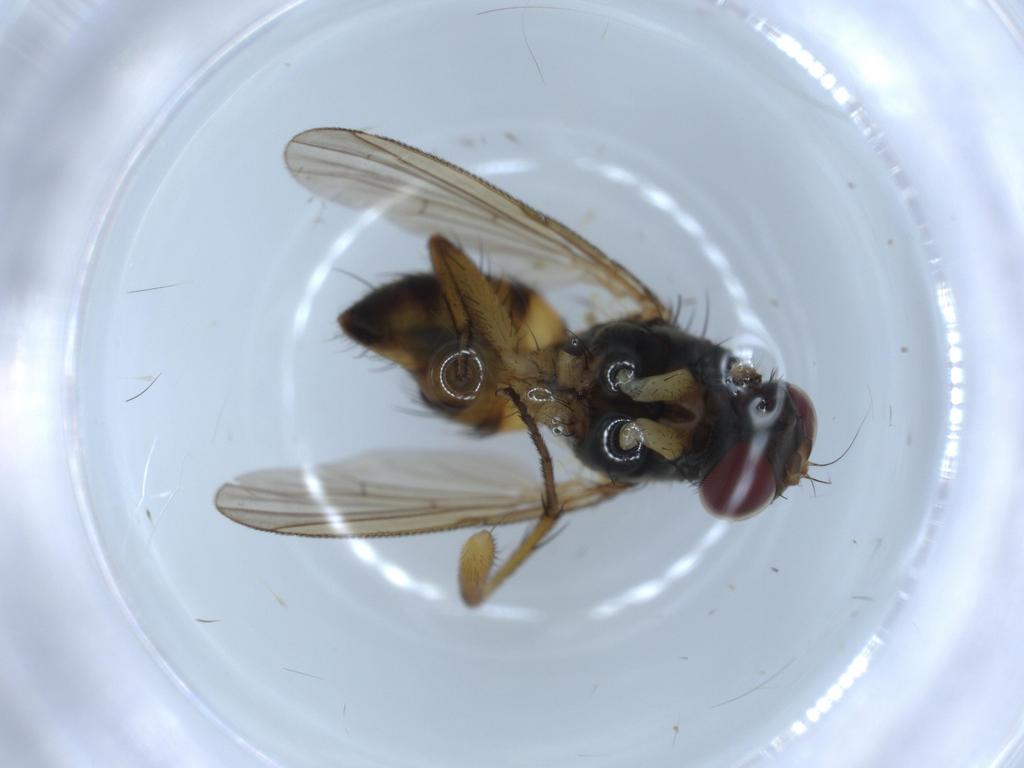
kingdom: Animalia
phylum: Arthropoda
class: Insecta
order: Diptera
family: Muscidae
